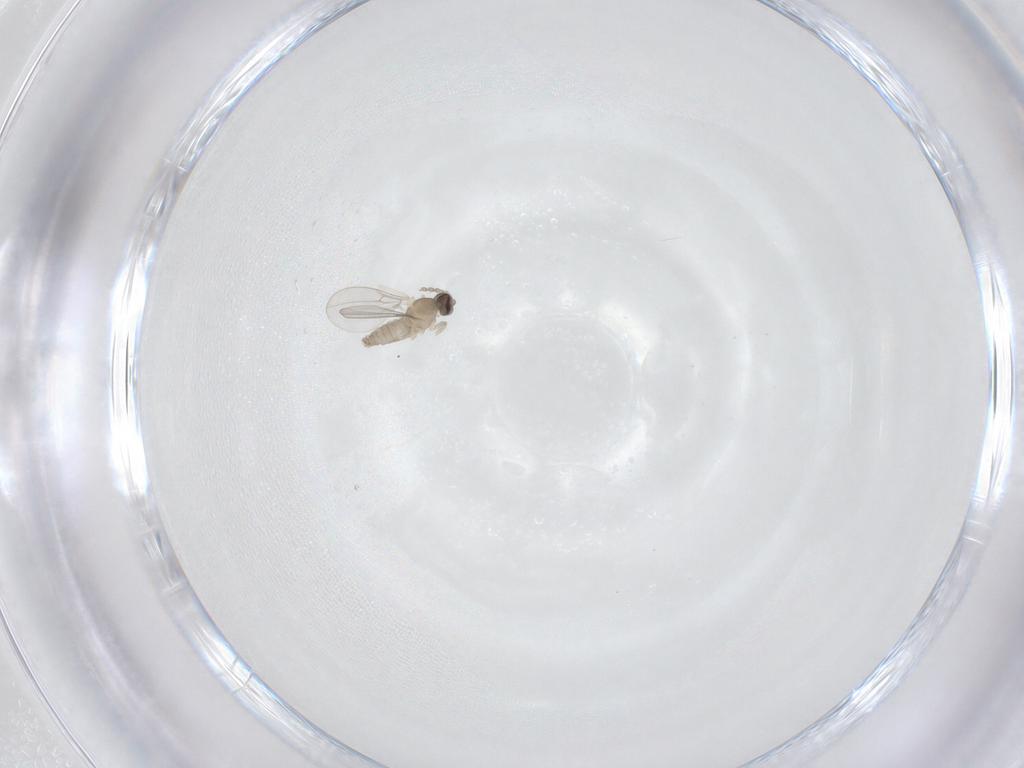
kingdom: Animalia
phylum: Arthropoda
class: Insecta
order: Diptera
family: Cecidomyiidae
